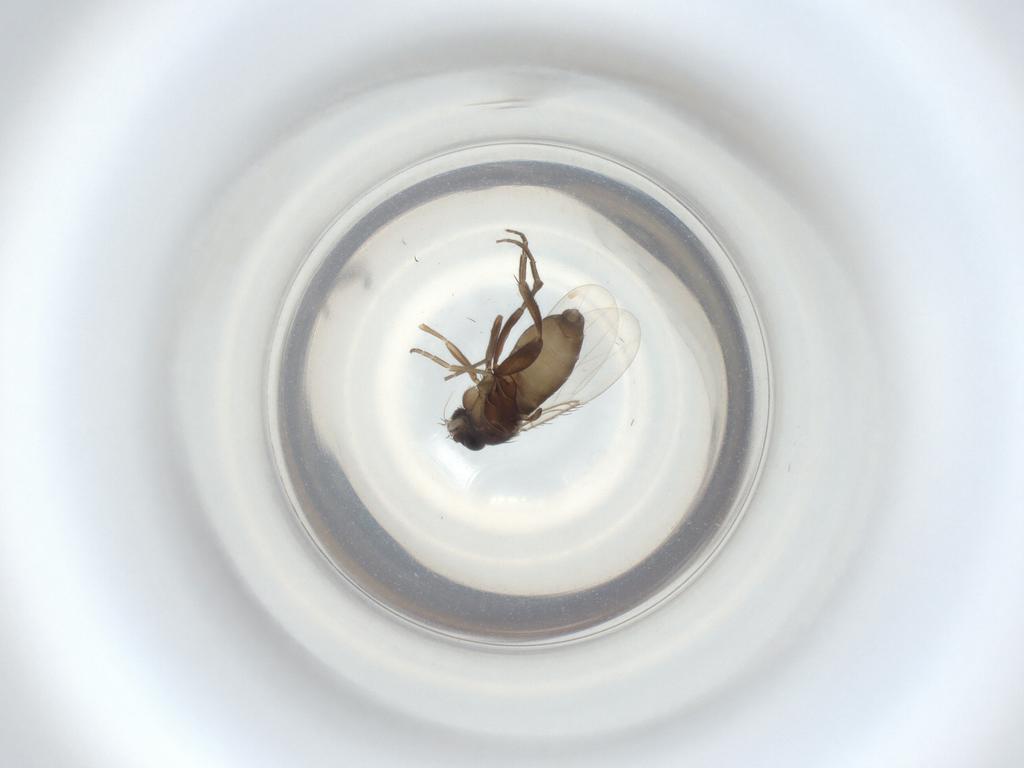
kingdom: Animalia
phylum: Arthropoda
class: Insecta
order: Diptera
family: Phoridae
